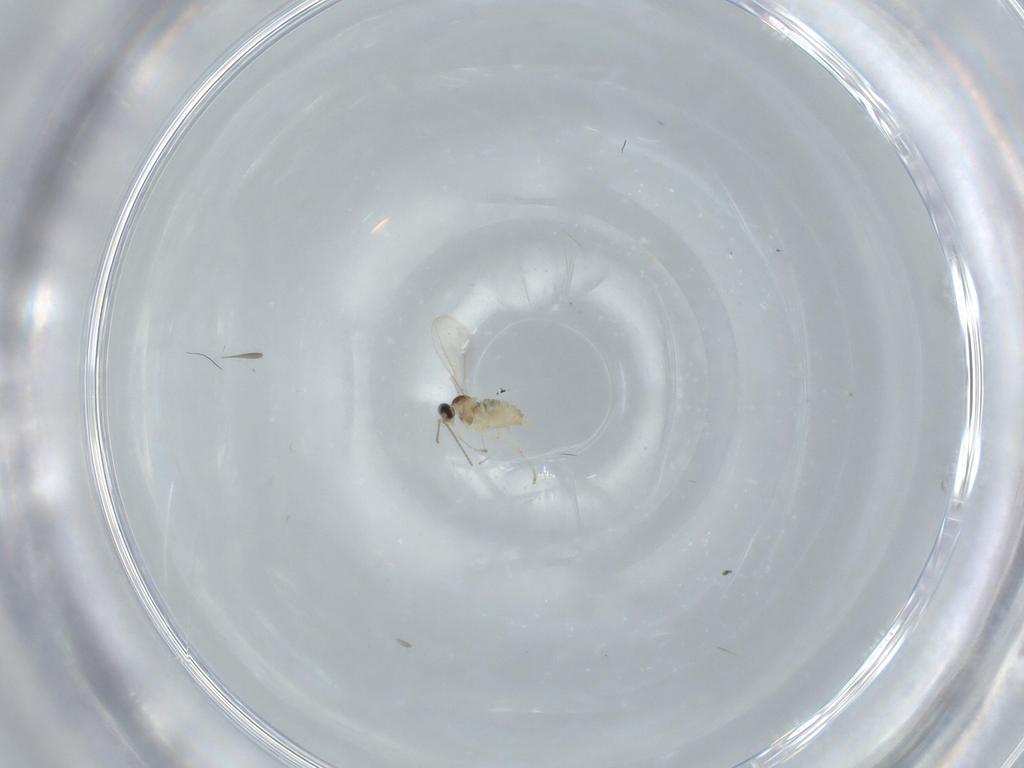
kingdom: Animalia
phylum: Arthropoda
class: Insecta
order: Diptera
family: Cecidomyiidae
